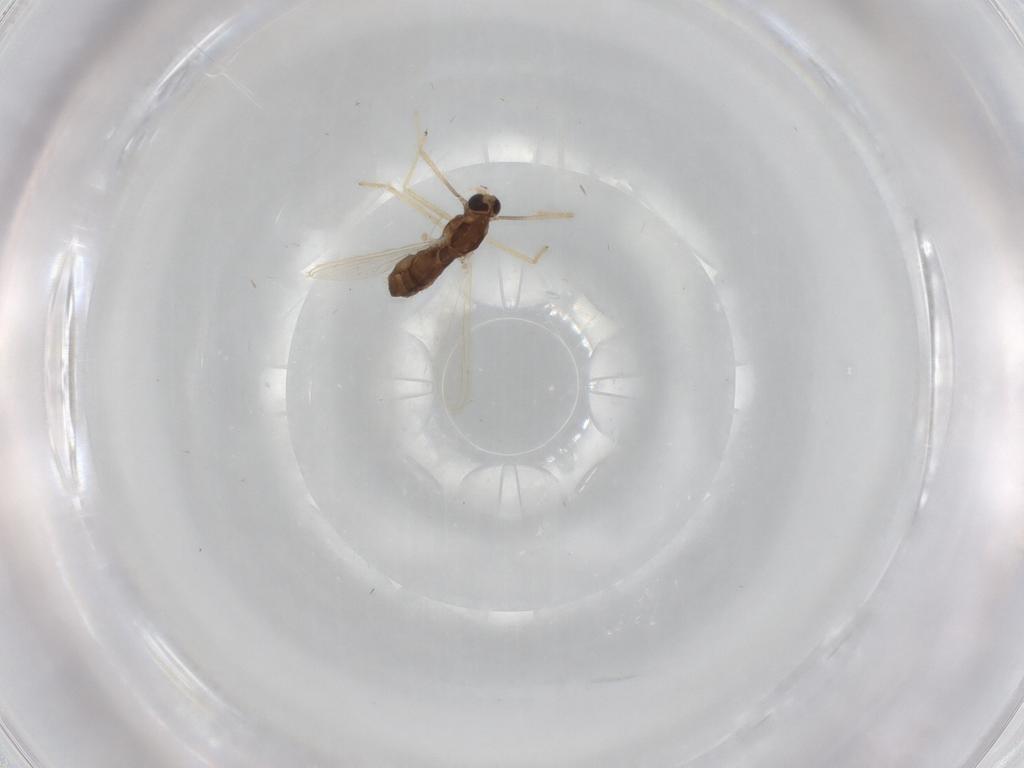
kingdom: Animalia
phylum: Arthropoda
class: Insecta
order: Diptera
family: Chironomidae
